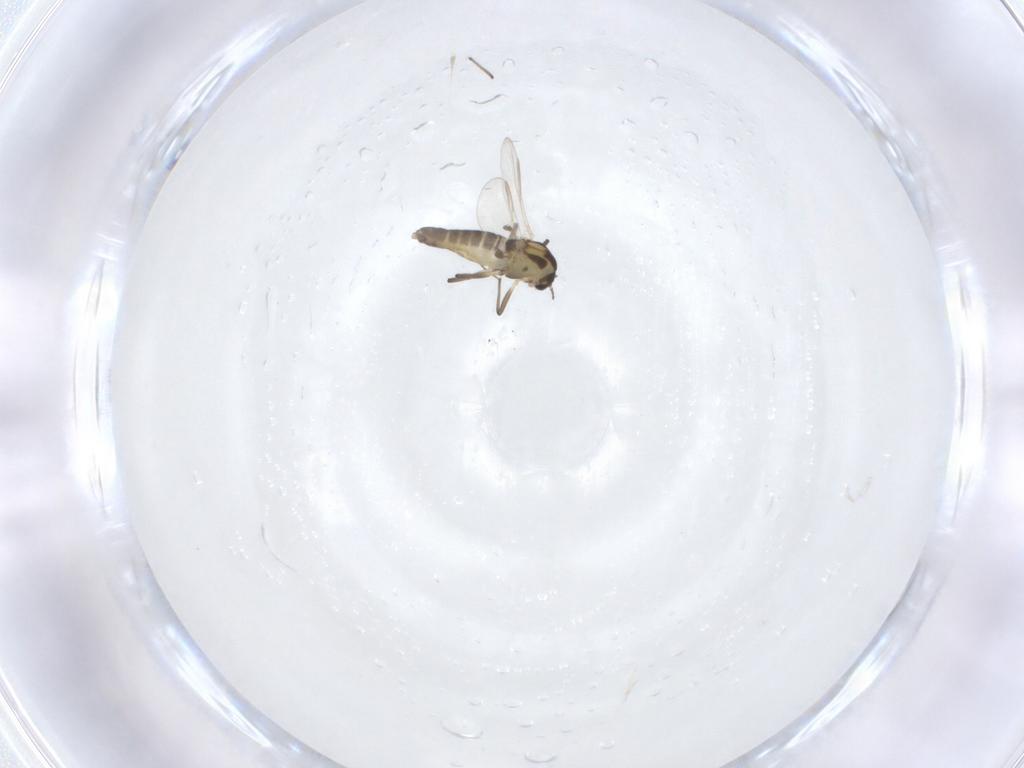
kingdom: Animalia
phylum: Arthropoda
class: Insecta
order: Diptera
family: Chironomidae
